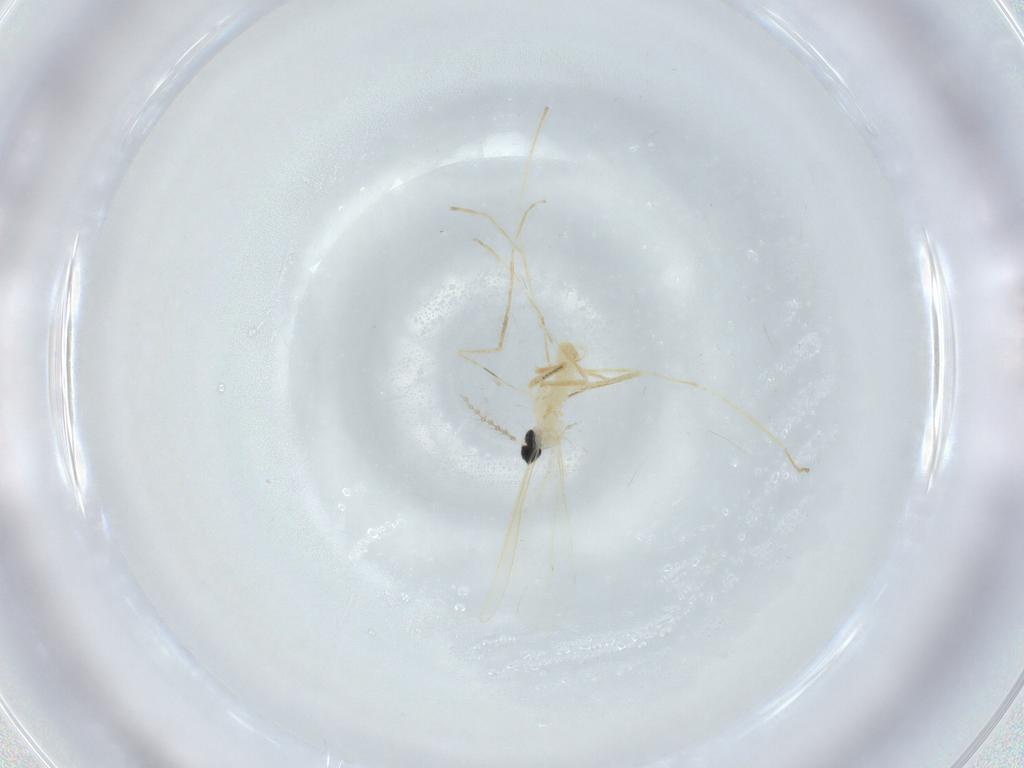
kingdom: Animalia
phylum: Arthropoda
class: Insecta
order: Diptera
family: Cecidomyiidae
